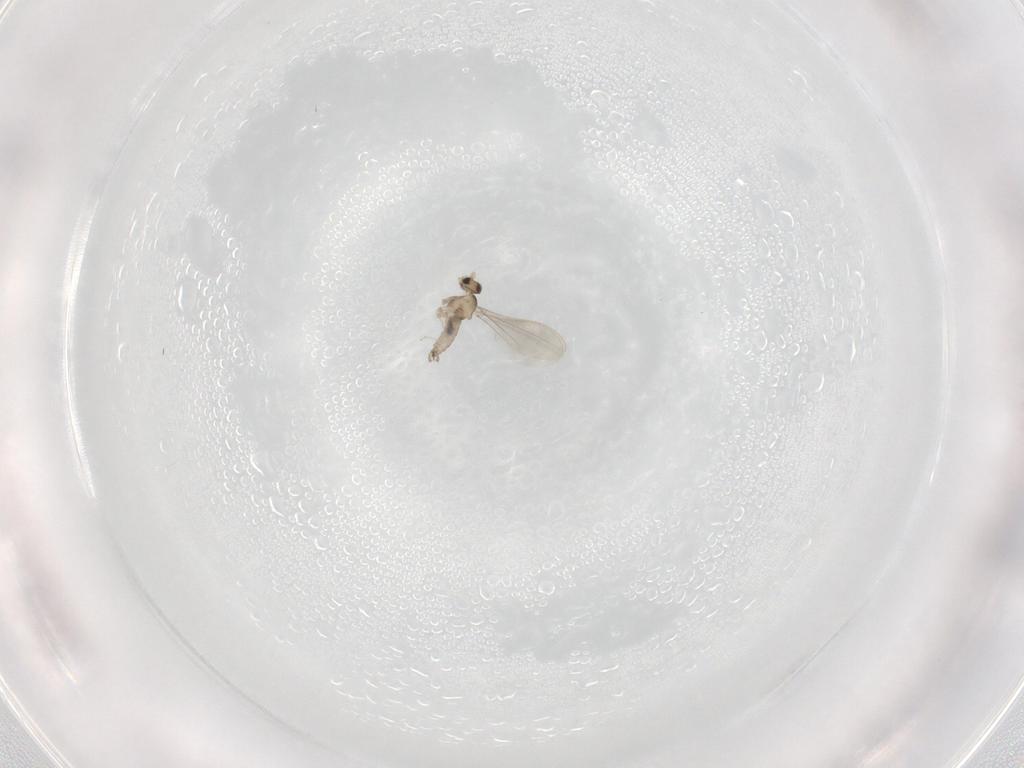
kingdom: Animalia
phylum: Arthropoda
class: Insecta
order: Diptera
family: Cecidomyiidae
